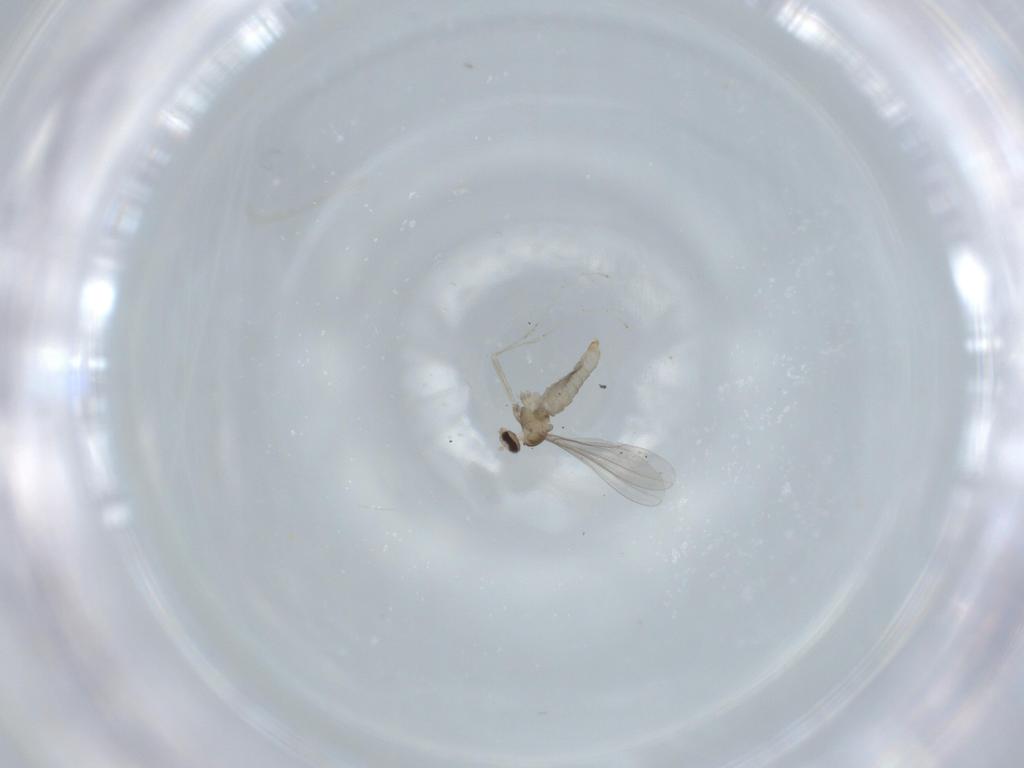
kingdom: Animalia
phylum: Arthropoda
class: Insecta
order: Diptera
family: Cecidomyiidae
